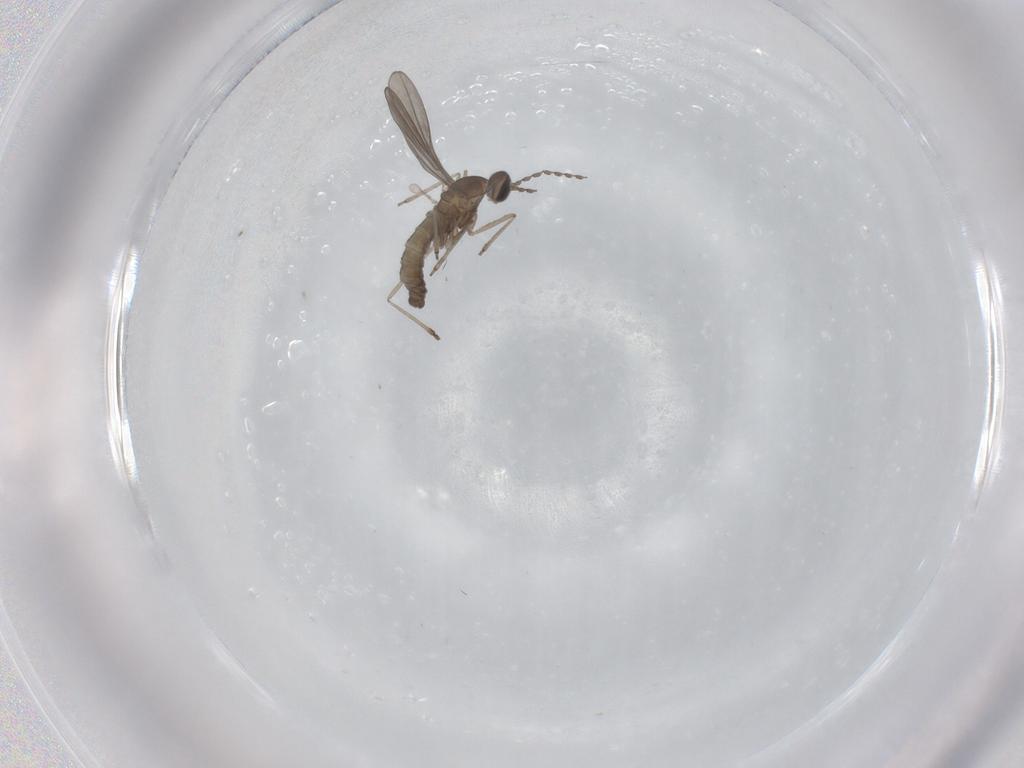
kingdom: Animalia
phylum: Arthropoda
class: Insecta
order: Diptera
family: Cecidomyiidae
